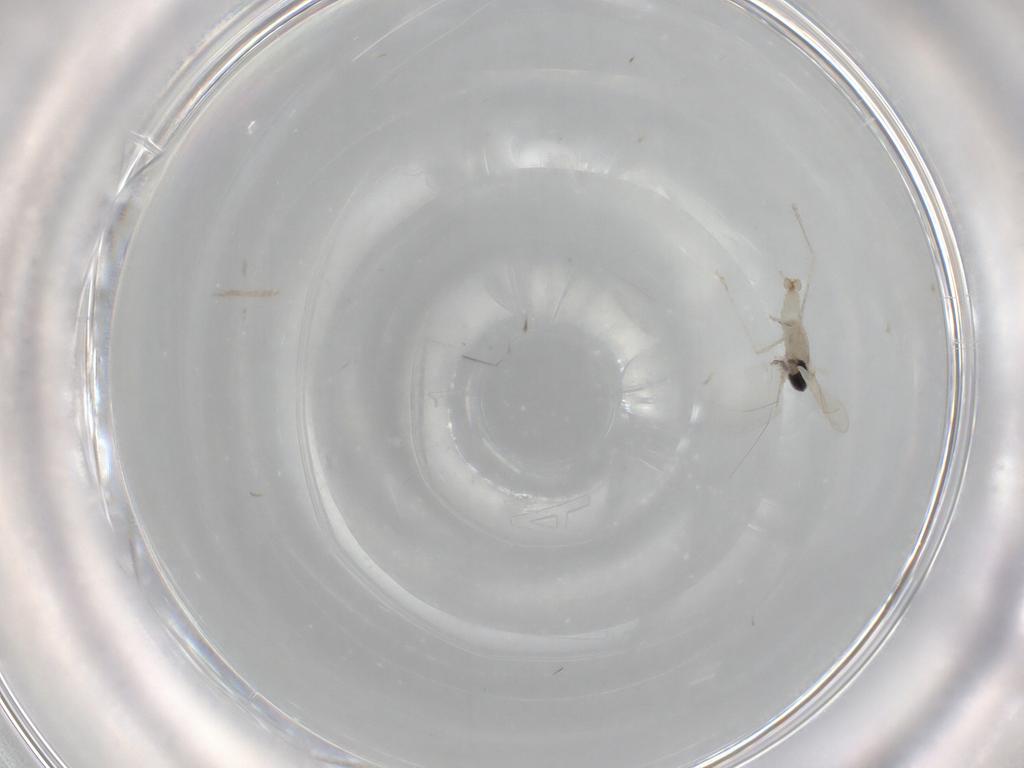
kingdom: Animalia
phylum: Arthropoda
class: Insecta
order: Diptera
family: Cecidomyiidae
